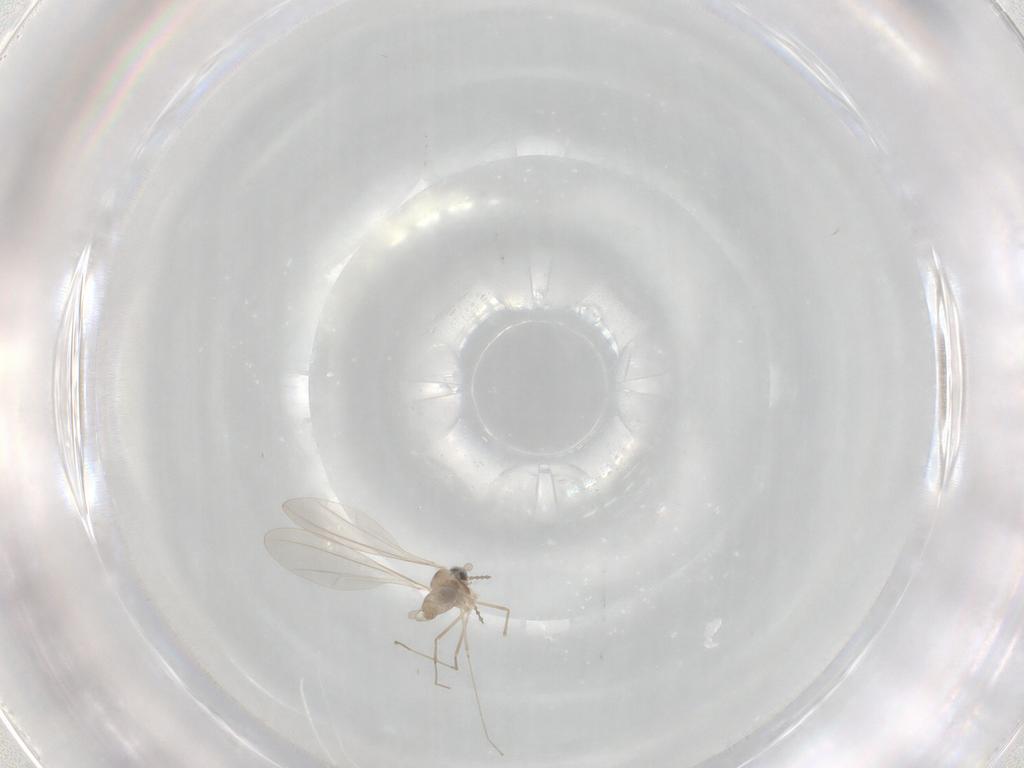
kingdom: Animalia
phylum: Arthropoda
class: Insecta
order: Diptera
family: Cecidomyiidae
